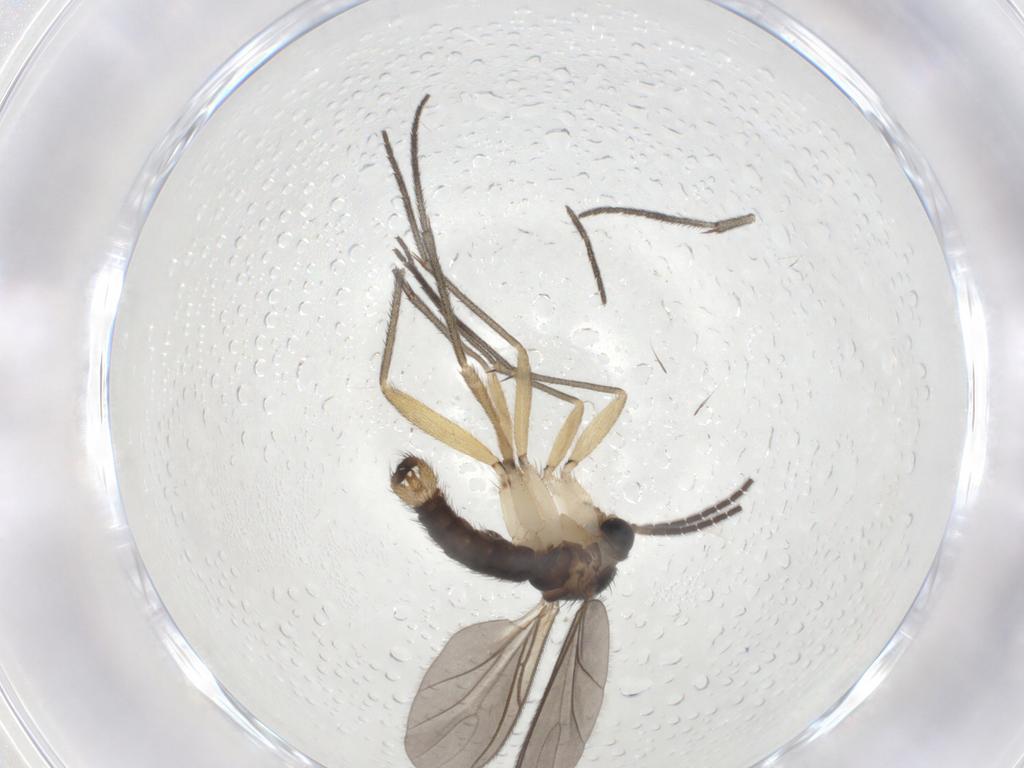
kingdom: Animalia
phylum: Arthropoda
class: Insecta
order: Diptera
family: Sciaridae
